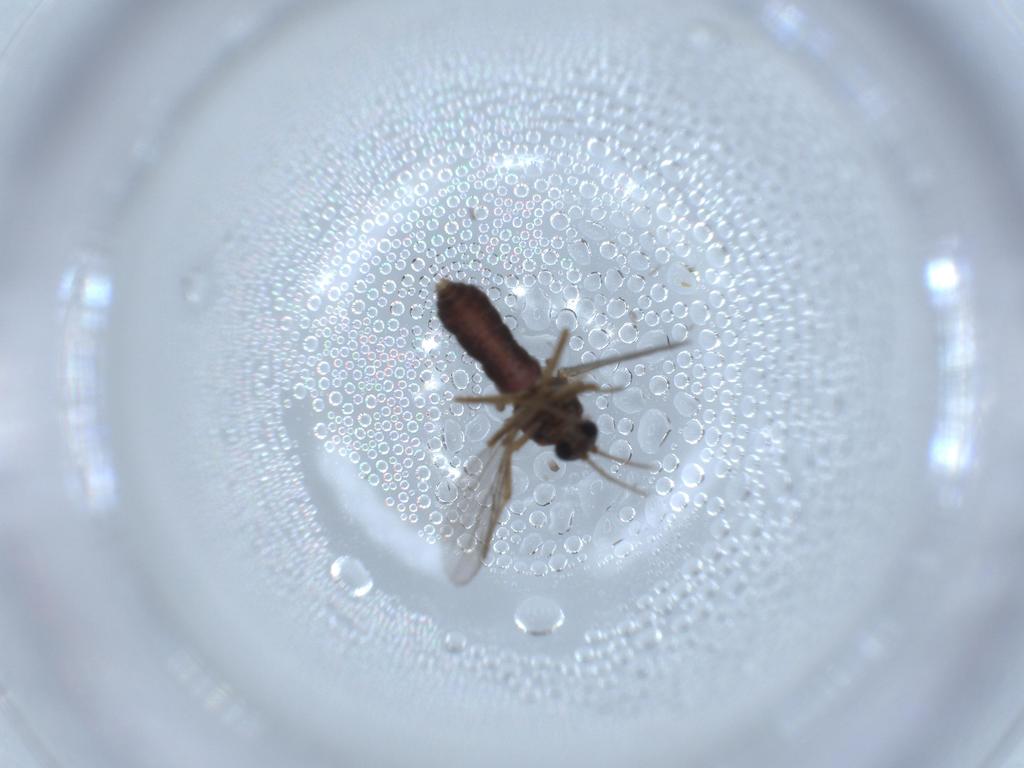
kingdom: Animalia
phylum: Arthropoda
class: Insecta
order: Diptera
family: Ceratopogonidae
